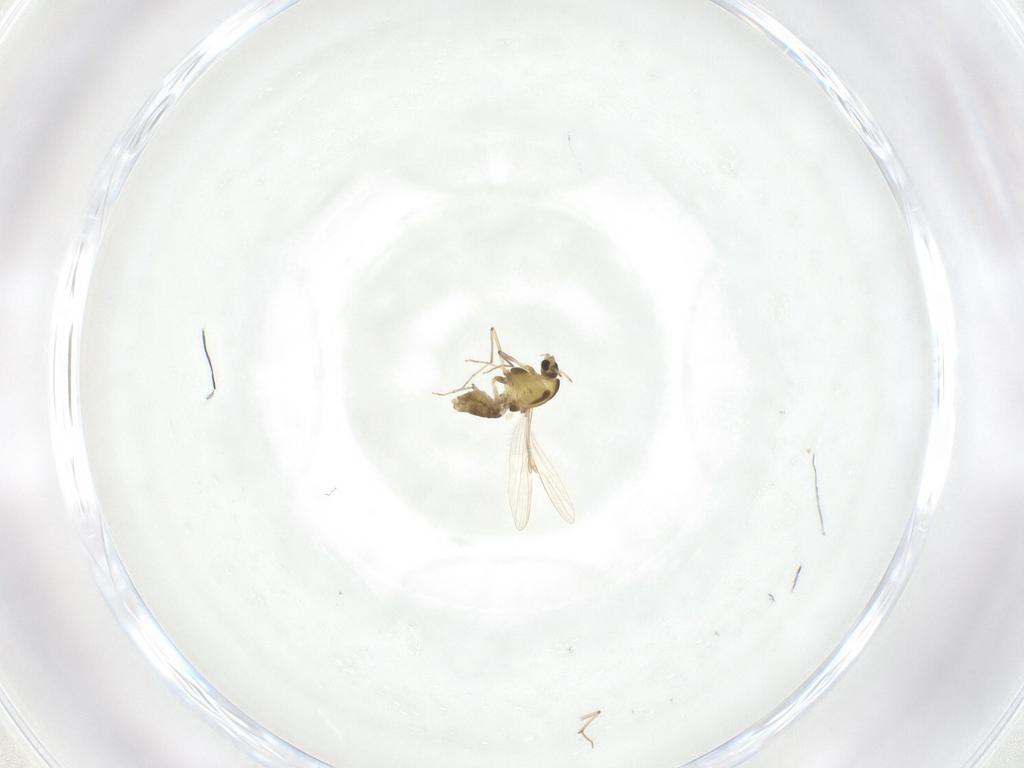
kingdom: Animalia
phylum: Arthropoda
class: Insecta
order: Diptera
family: Chironomidae
